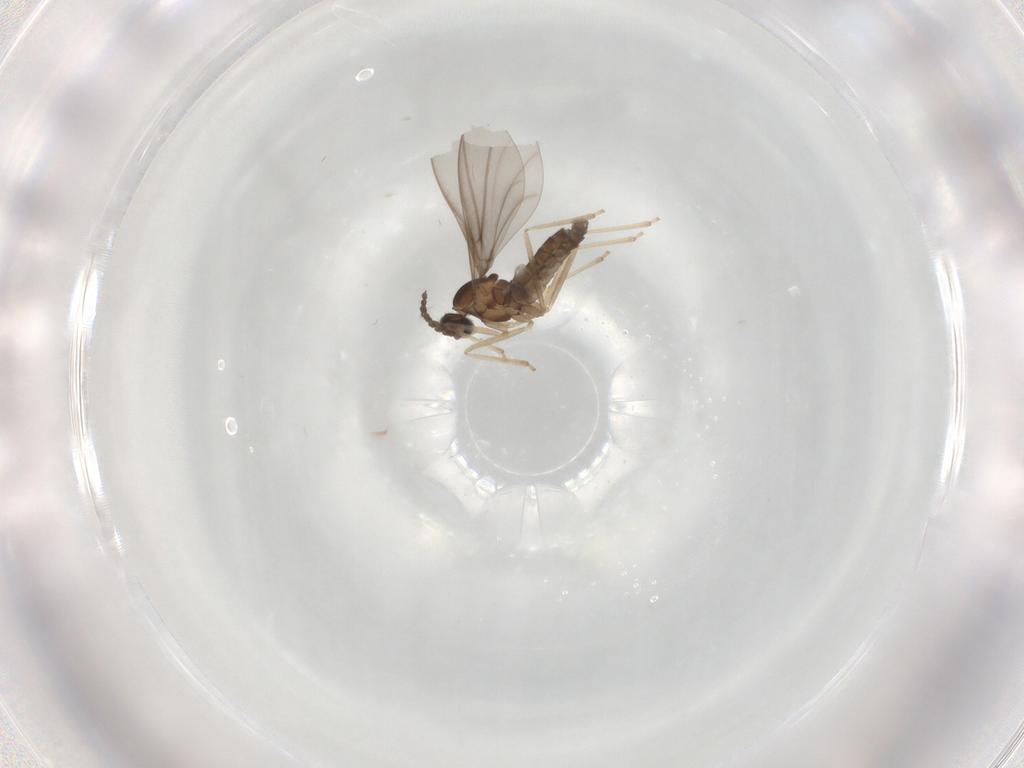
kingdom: Animalia
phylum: Arthropoda
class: Insecta
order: Diptera
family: Cecidomyiidae
